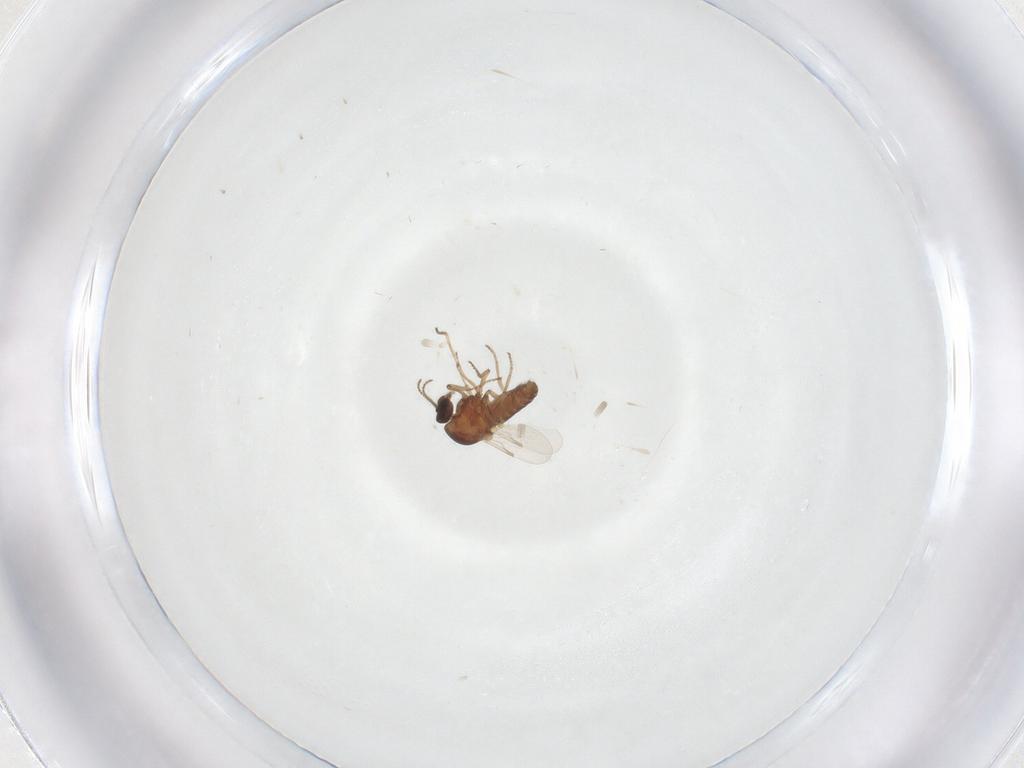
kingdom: Animalia
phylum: Arthropoda
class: Insecta
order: Diptera
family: Ceratopogonidae
